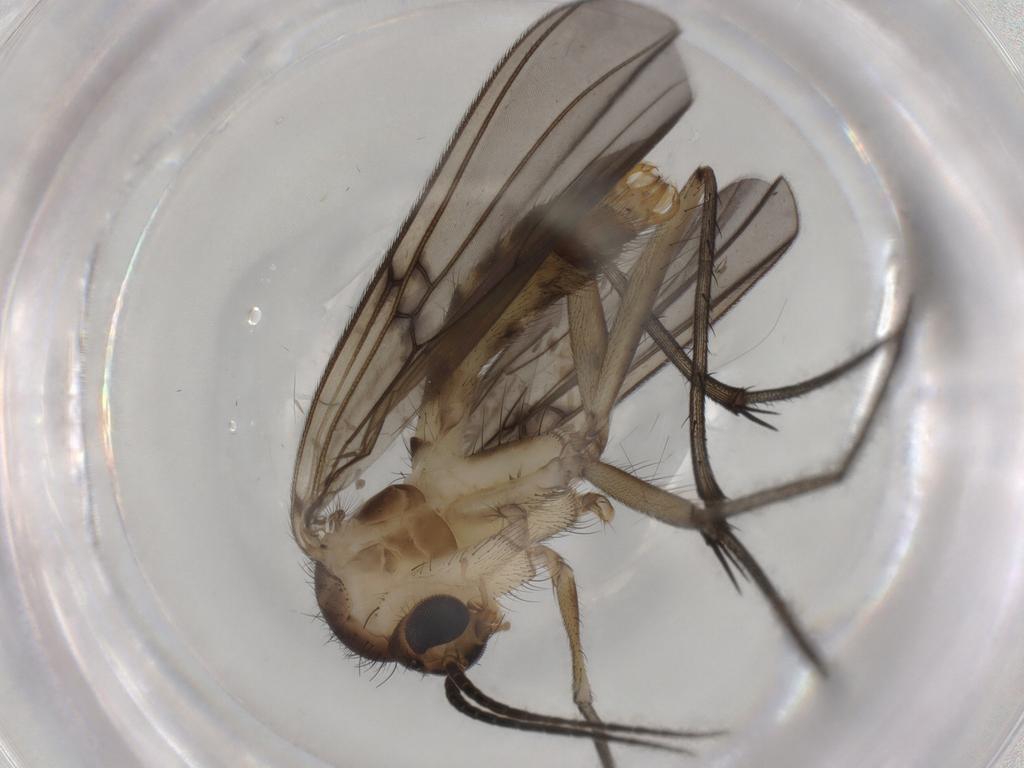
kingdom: Animalia
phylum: Arthropoda
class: Insecta
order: Diptera
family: Mycetophilidae
